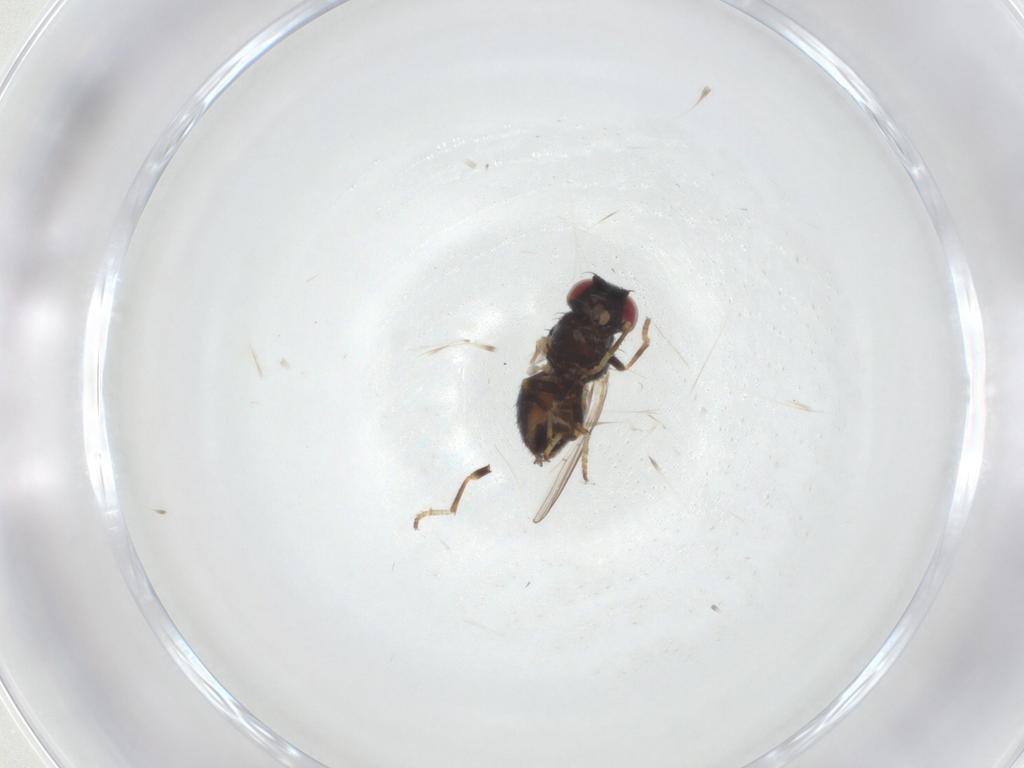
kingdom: Animalia
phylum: Arthropoda
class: Insecta
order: Diptera
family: Chamaemyiidae
